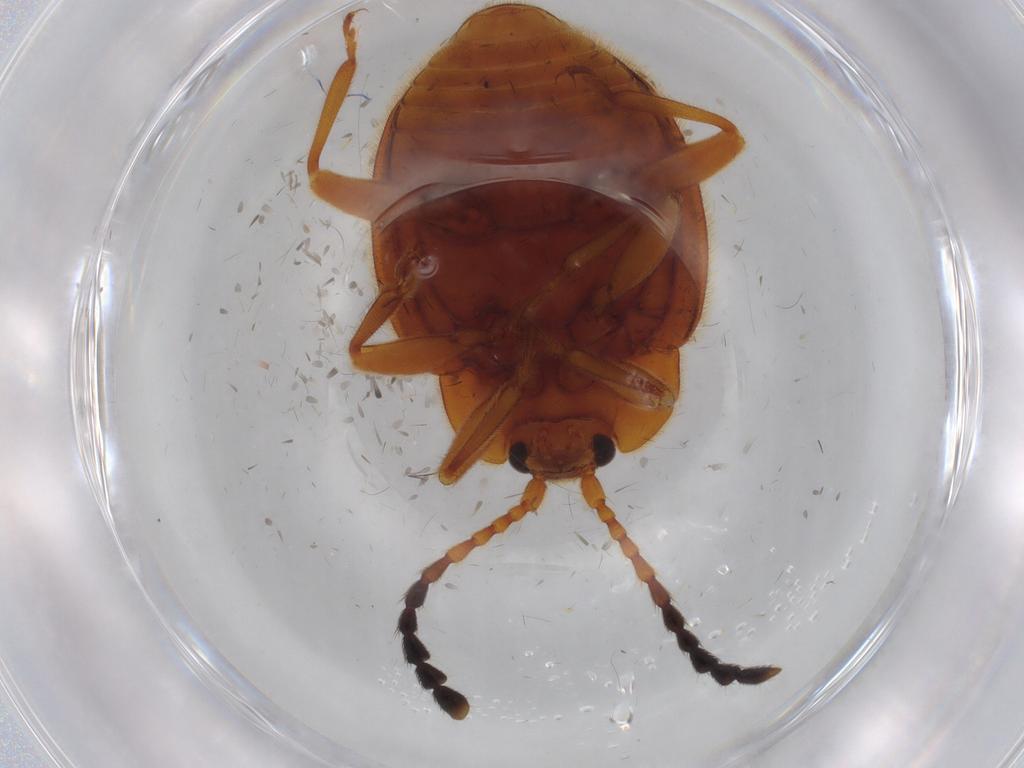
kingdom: Animalia
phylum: Arthropoda
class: Insecta
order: Coleoptera
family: Endomychidae
